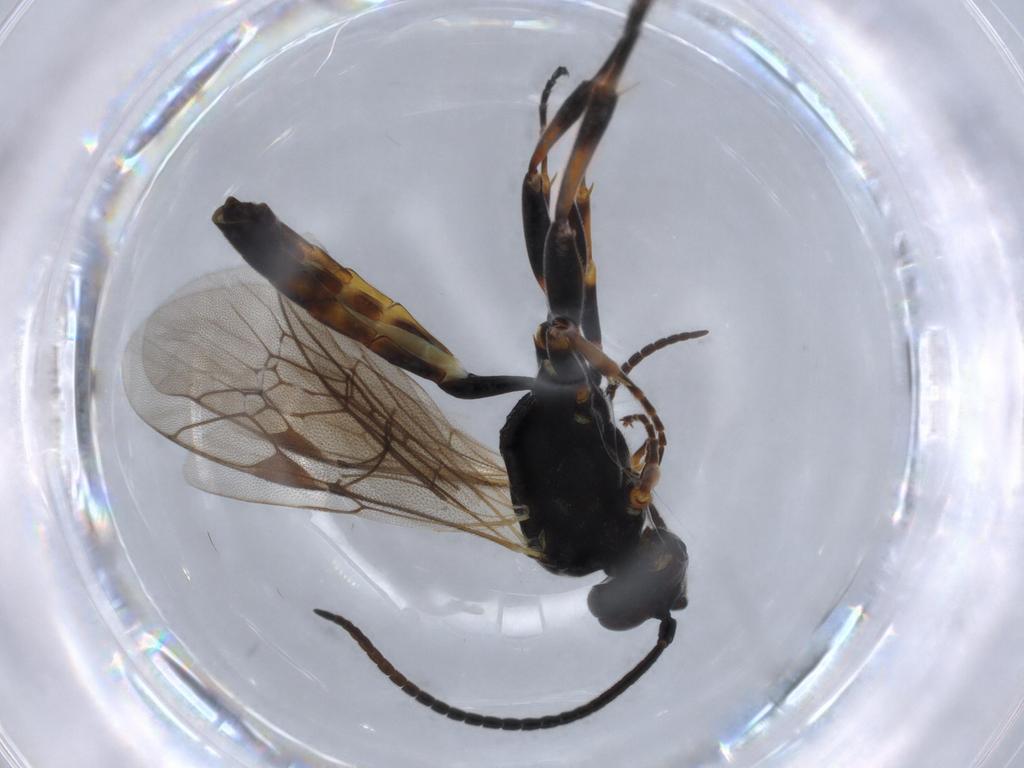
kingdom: Animalia
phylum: Arthropoda
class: Insecta
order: Hymenoptera
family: Ichneumonidae
